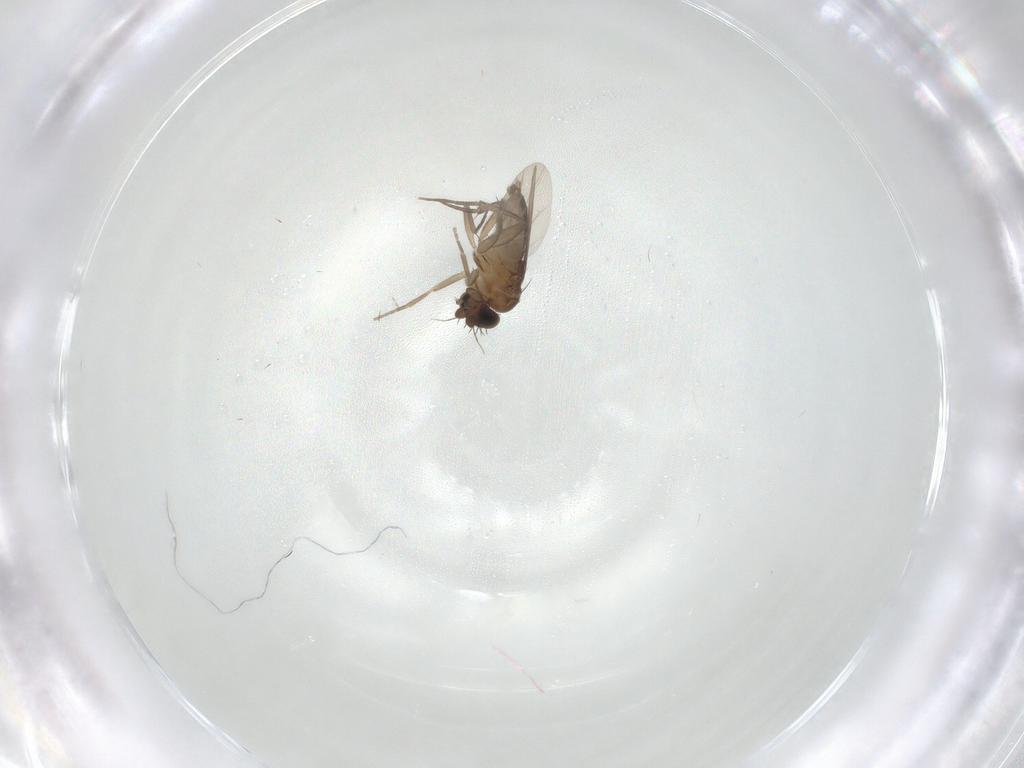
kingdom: Animalia
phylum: Arthropoda
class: Insecta
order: Diptera
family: Phoridae
